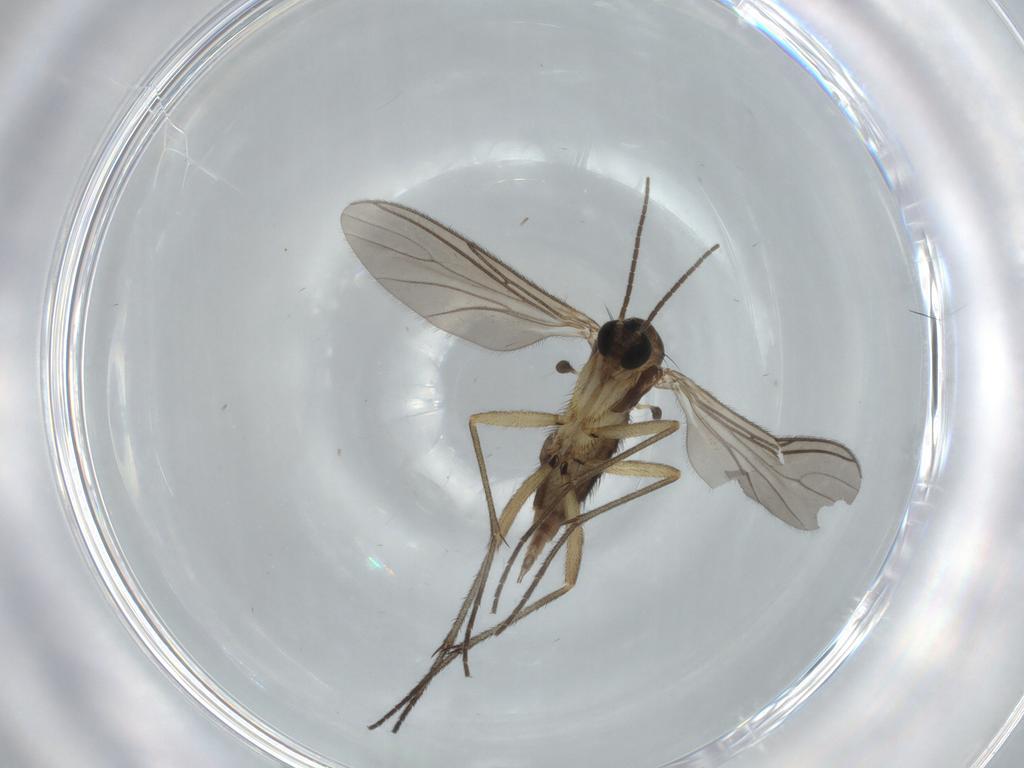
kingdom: Animalia
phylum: Arthropoda
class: Insecta
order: Diptera
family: Sciaridae
